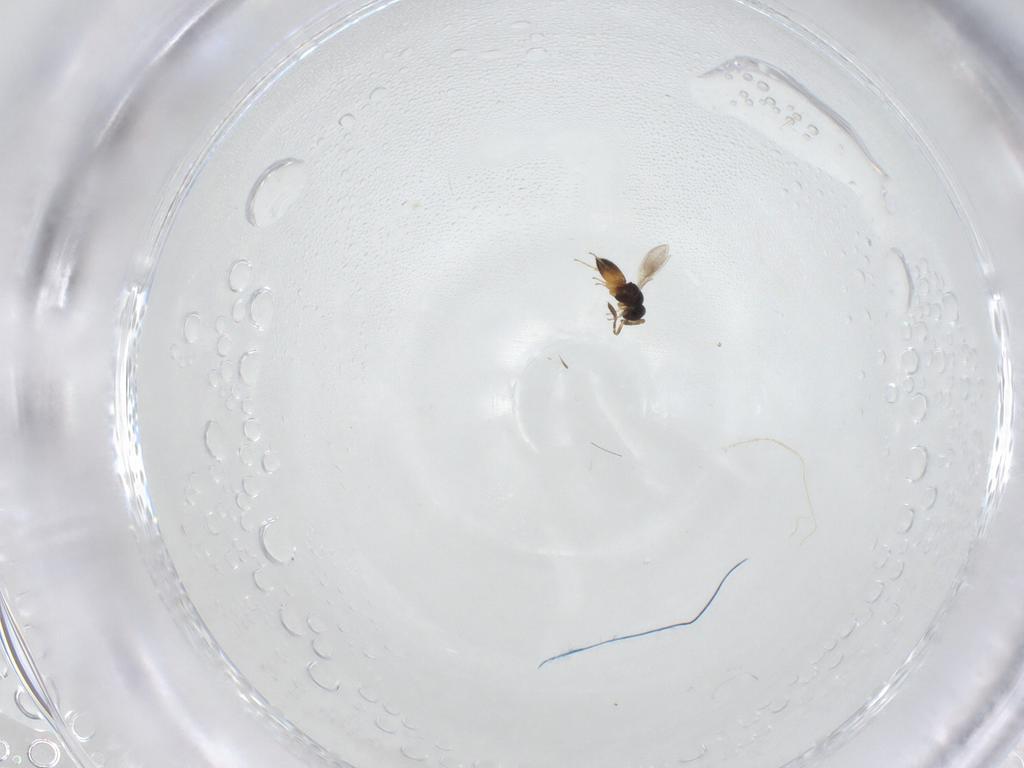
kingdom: Animalia
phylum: Arthropoda
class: Insecta
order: Hymenoptera
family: Scelionidae
